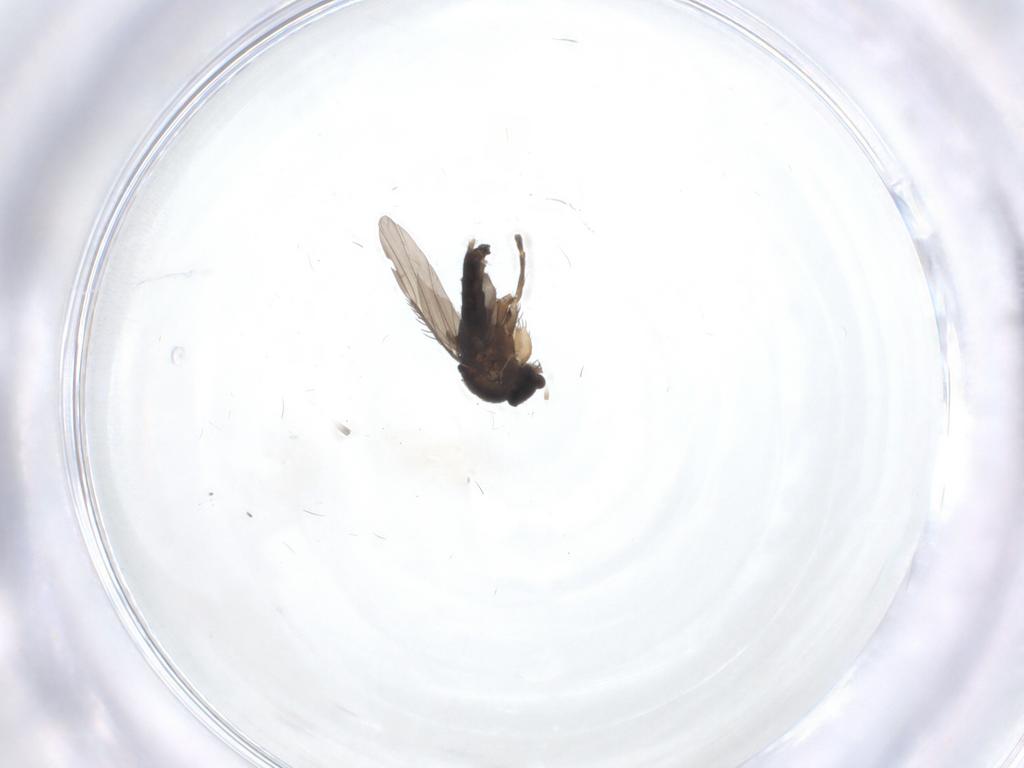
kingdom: Animalia
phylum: Arthropoda
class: Insecta
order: Diptera
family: Phoridae
